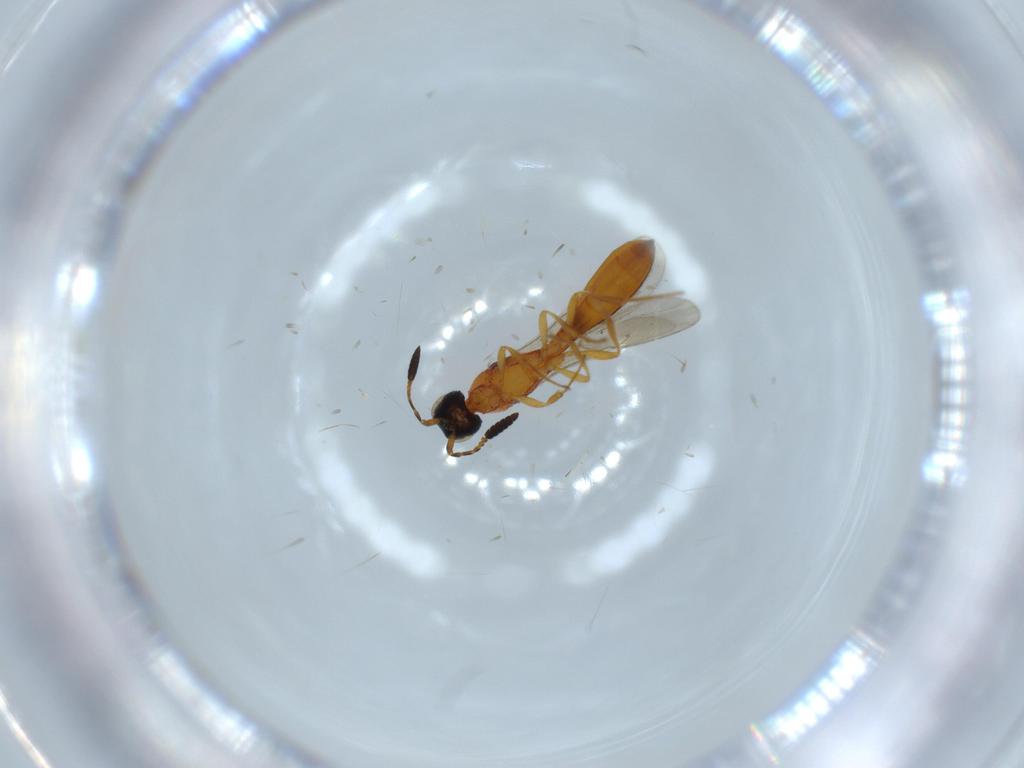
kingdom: Animalia
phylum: Arthropoda
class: Insecta
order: Hymenoptera
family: Scelionidae
